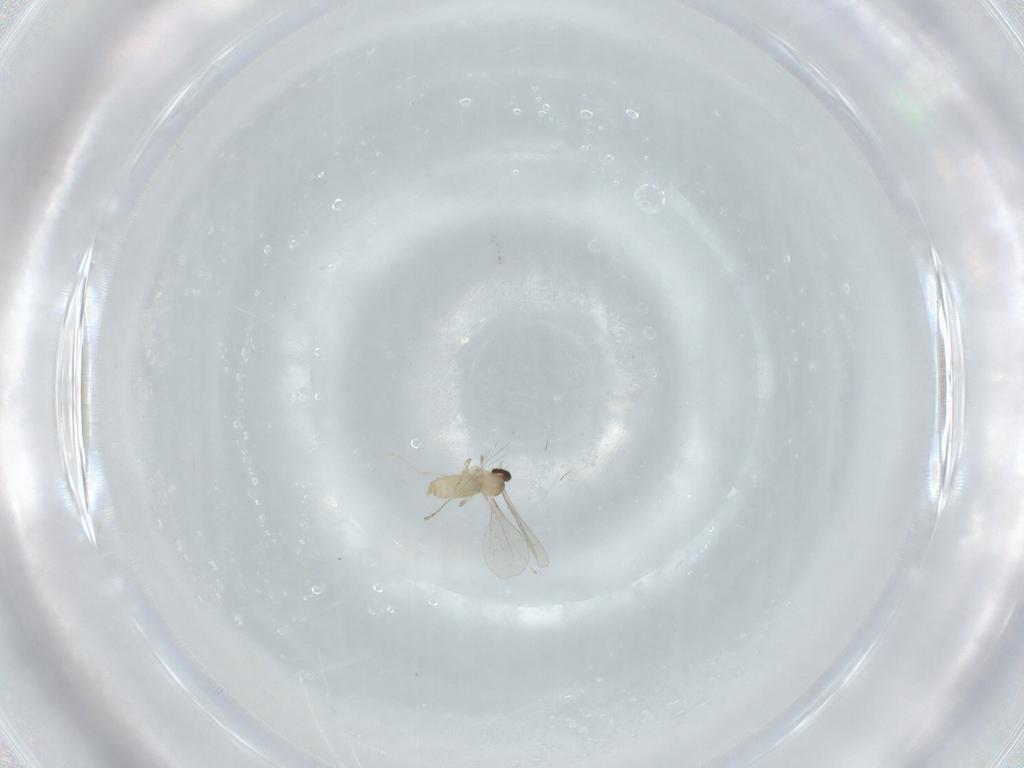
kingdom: Animalia
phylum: Arthropoda
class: Insecta
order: Diptera
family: Cecidomyiidae
